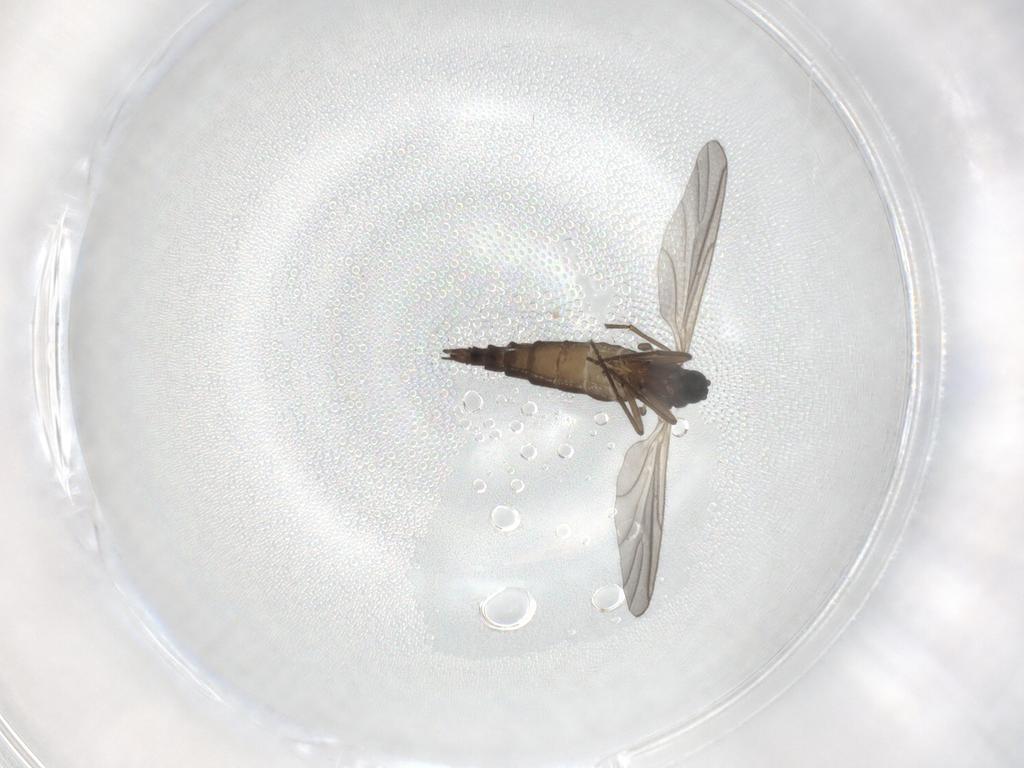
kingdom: Animalia
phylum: Arthropoda
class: Insecta
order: Diptera
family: Sciaridae
